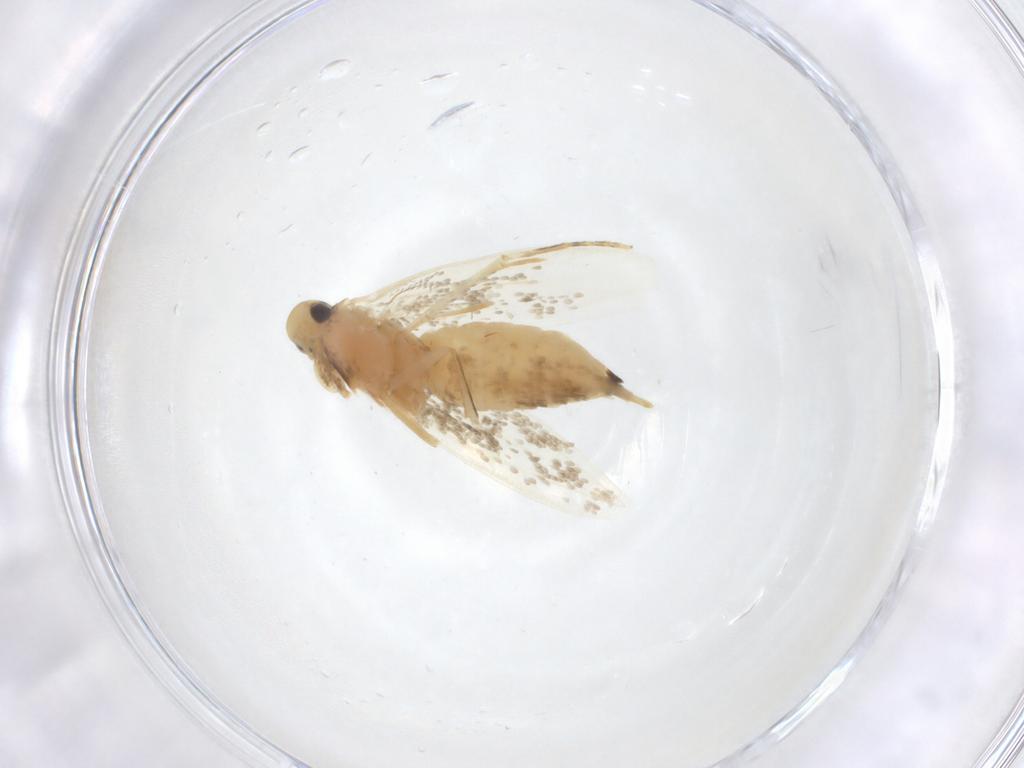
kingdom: Animalia
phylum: Arthropoda
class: Insecta
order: Lepidoptera
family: Tineidae
